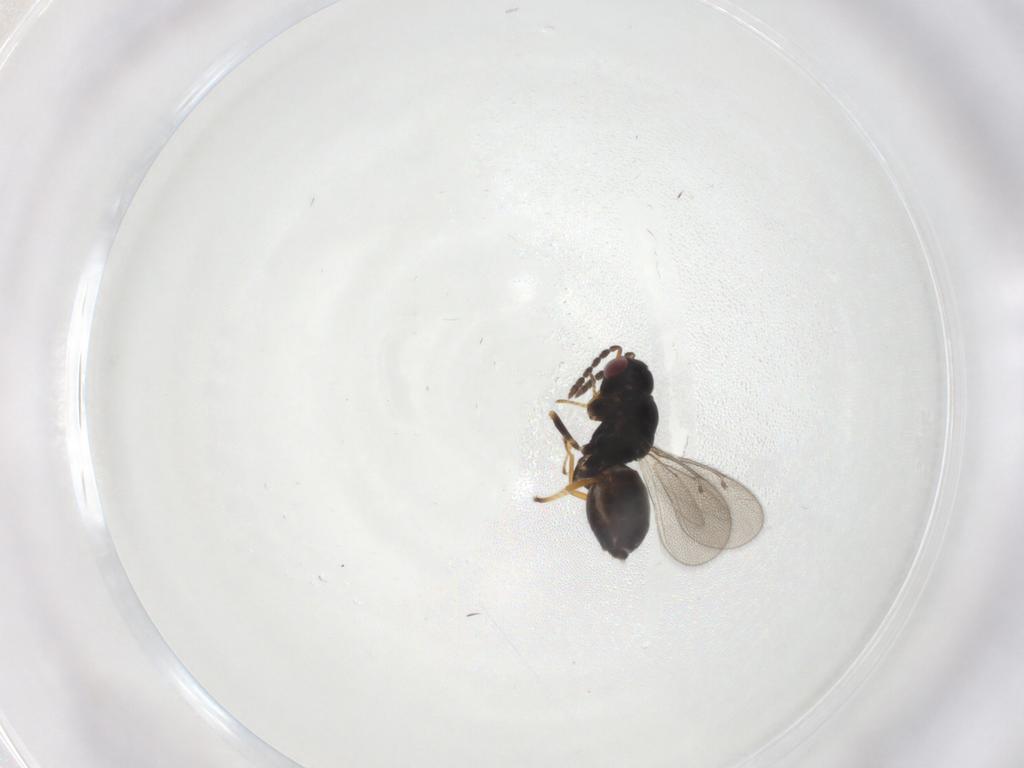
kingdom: Animalia
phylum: Arthropoda
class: Insecta
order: Hymenoptera
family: Eulophidae
